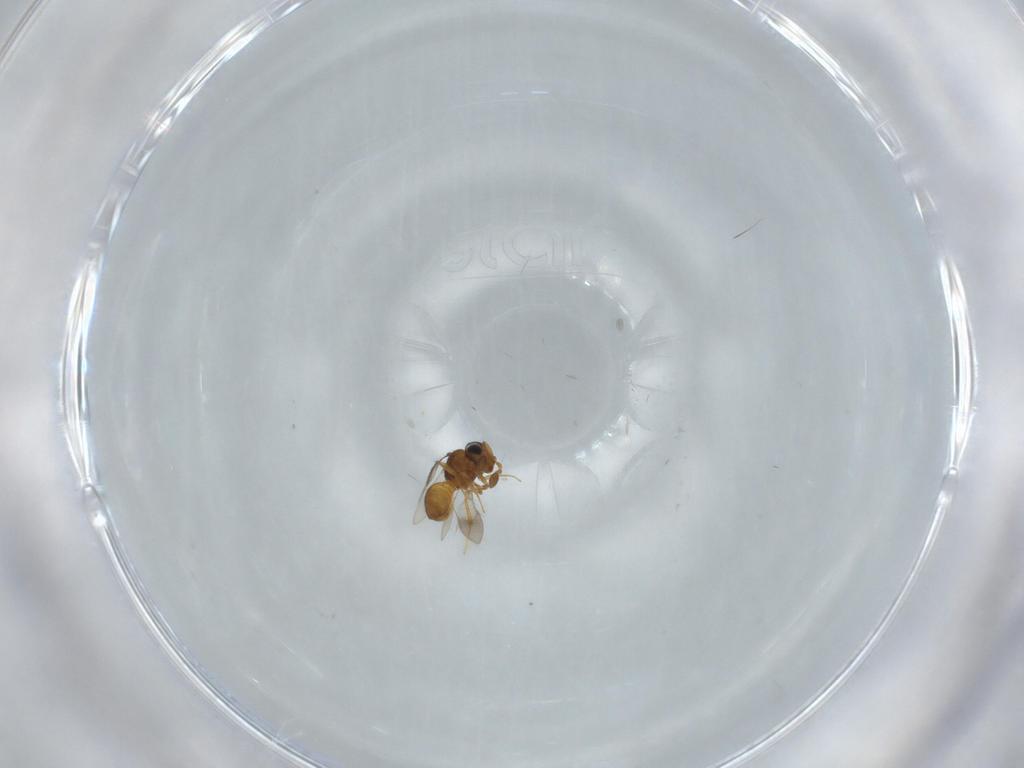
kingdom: Animalia
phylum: Arthropoda
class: Insecta
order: Hymenoptera
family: Scelionidae
